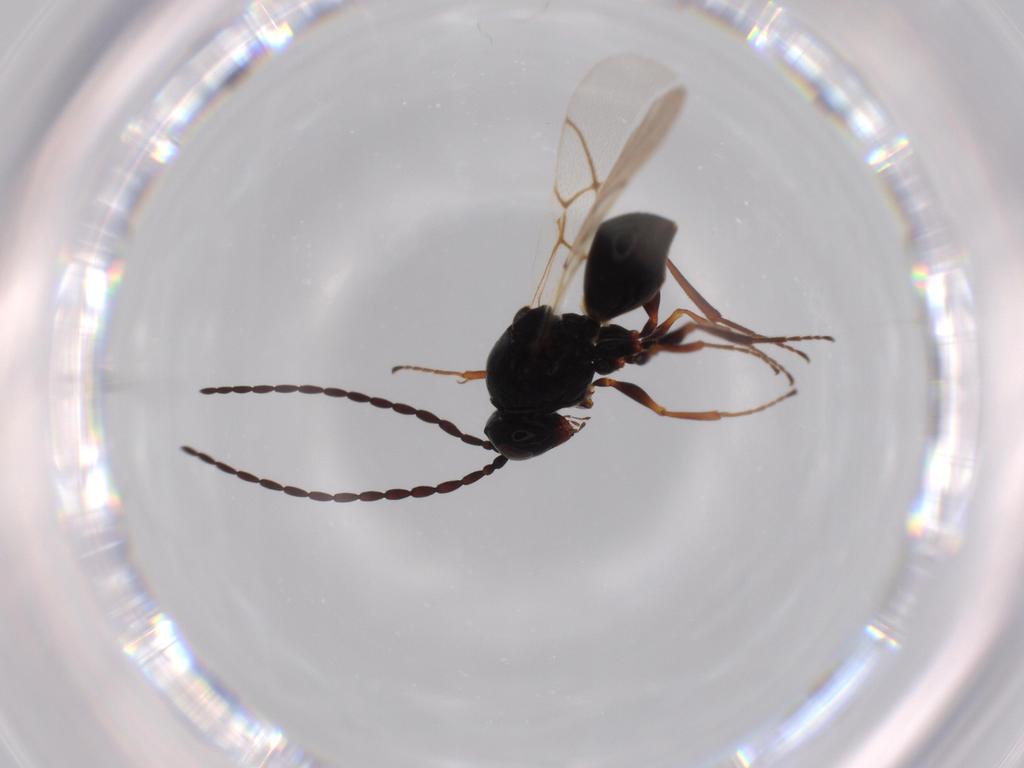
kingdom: Animalia
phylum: Arthropoda
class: Insecta
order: Hymenoptera
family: Figitidae
